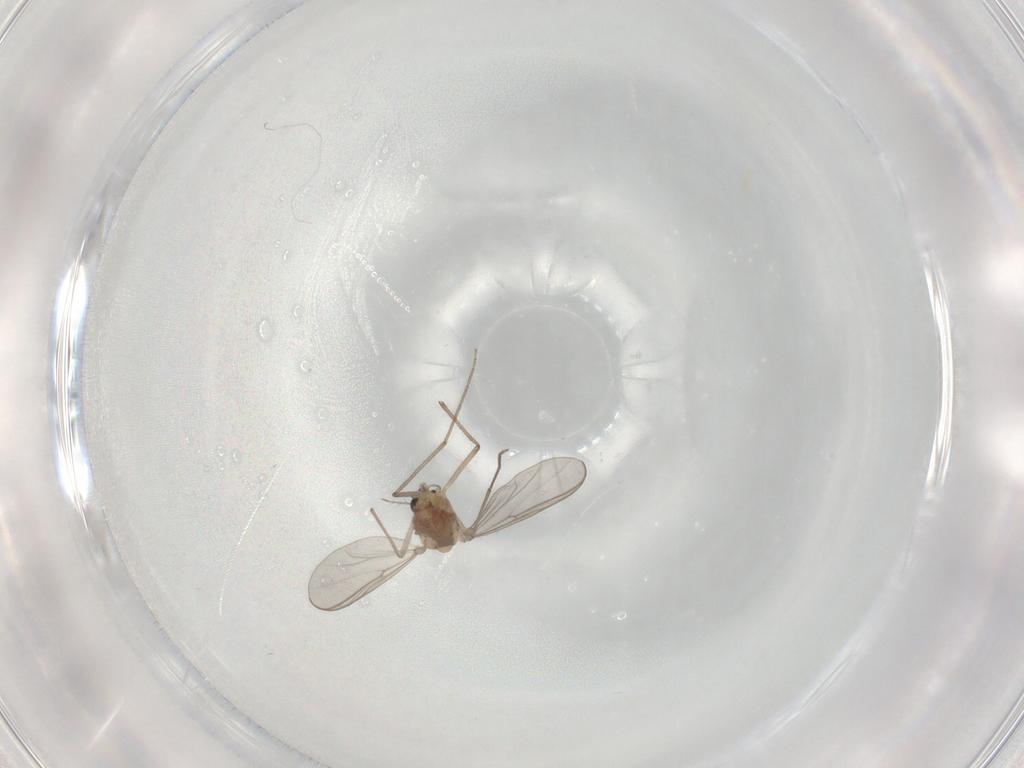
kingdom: Animalia
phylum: Arthropoda
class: Insecta
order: Diptera
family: Chironomidae
